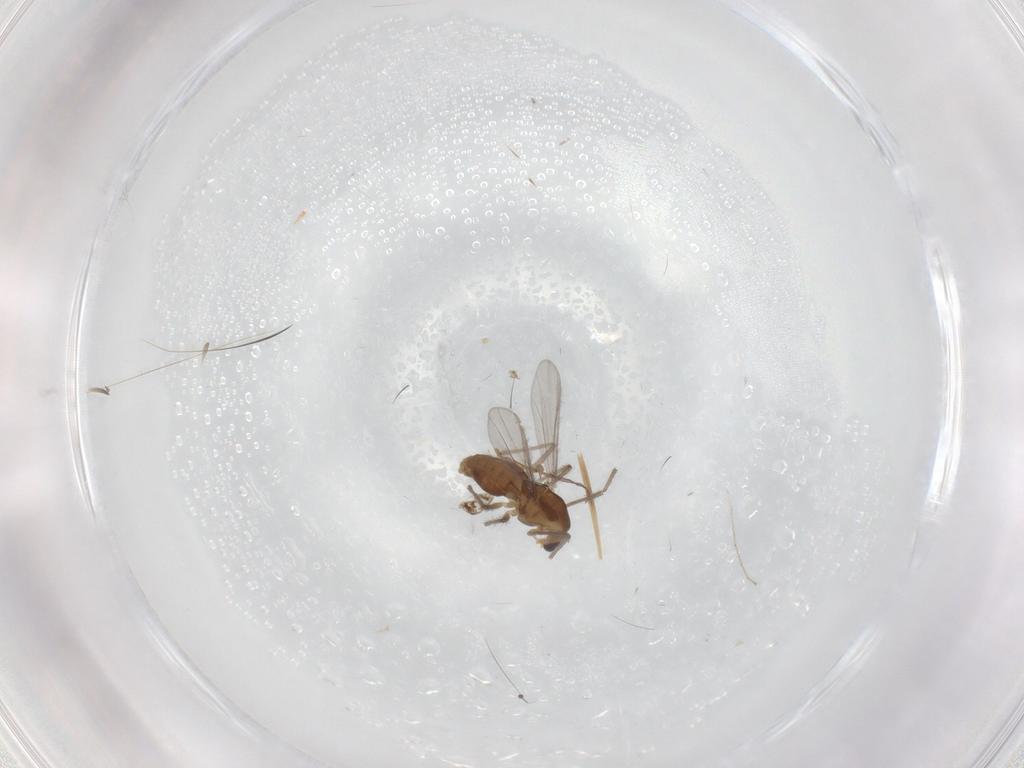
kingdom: Animalia
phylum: Arthropoda
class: Insecta
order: Diptera
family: Cecidomyiidae
